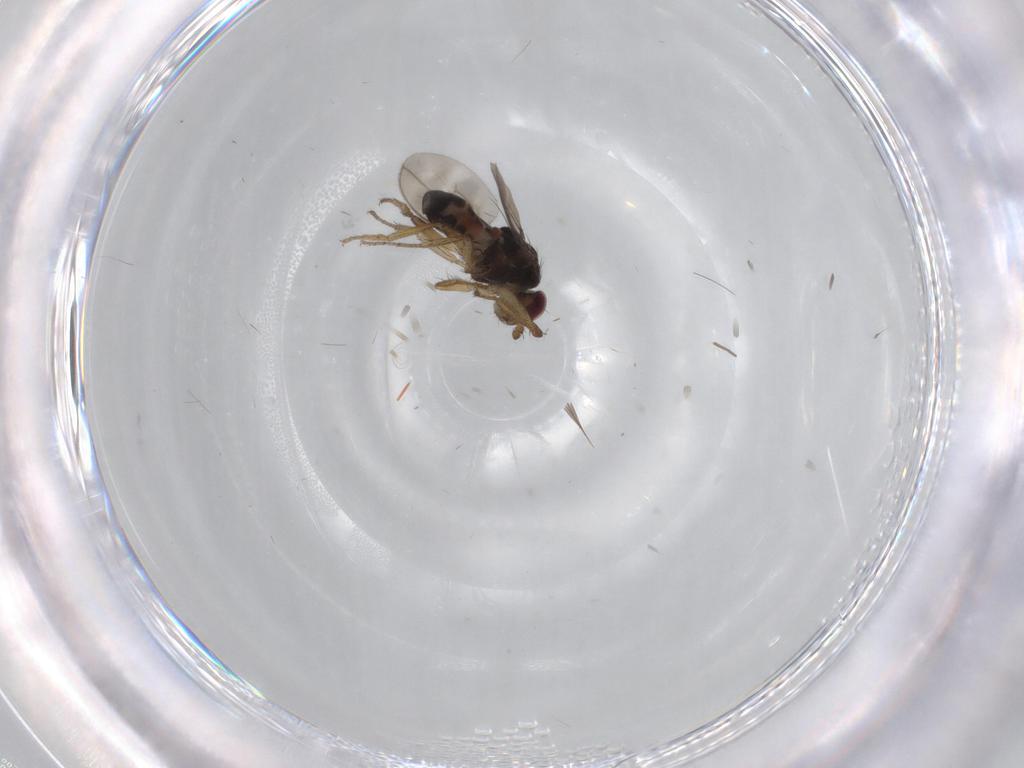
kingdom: Animalia
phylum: Arthropoda
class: Insecta
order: Diptera
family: Sphaeroceridae
